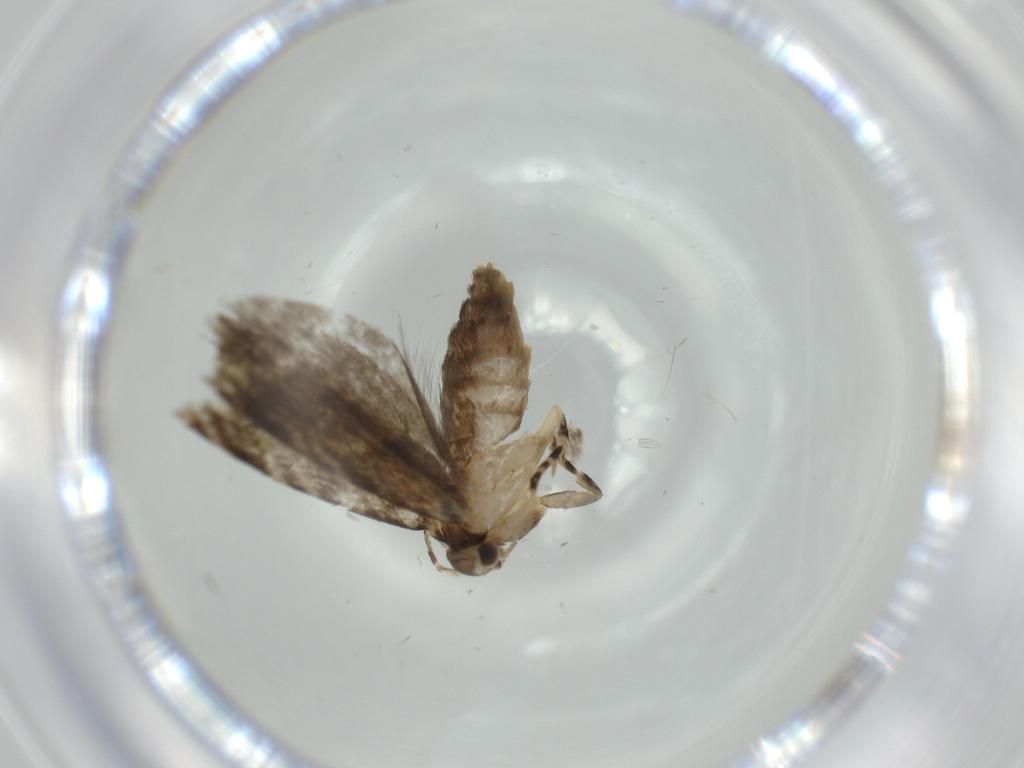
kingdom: Animalia
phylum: Arthropoda
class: Insecta
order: Lepidoptera
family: Tineidae
